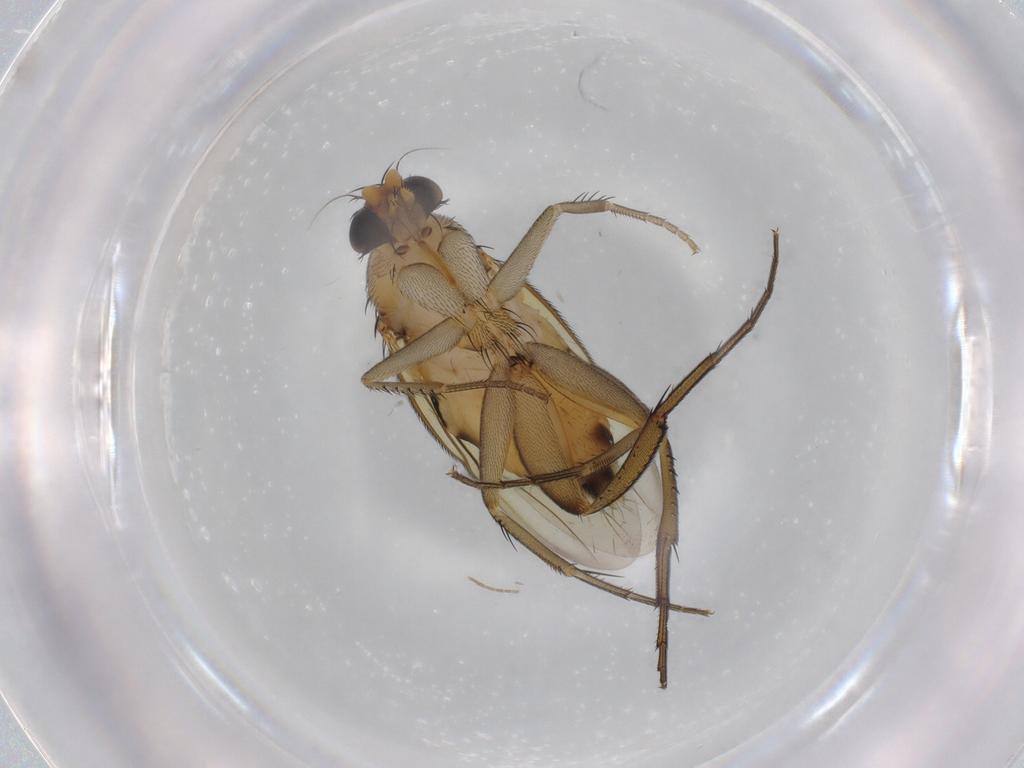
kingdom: Animalia
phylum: Arthropoda
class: Insecta
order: Diptera
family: Phoridae
